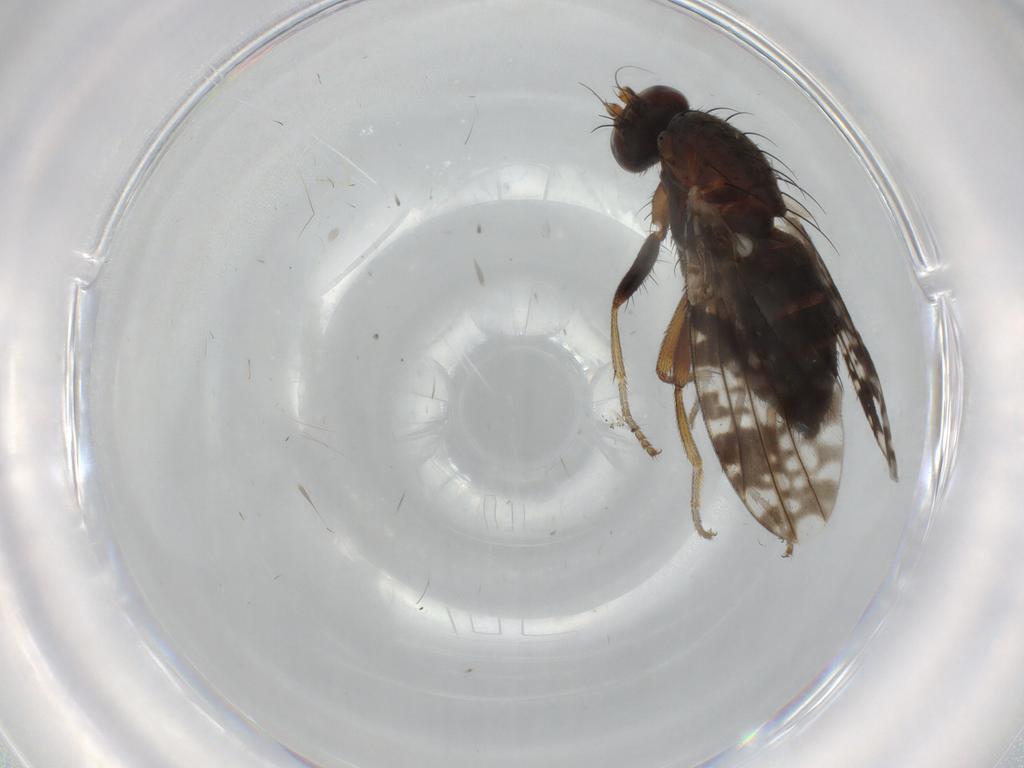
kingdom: Animalia
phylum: Arthropoda
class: Insecta
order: Diptera
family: Tephritidae
